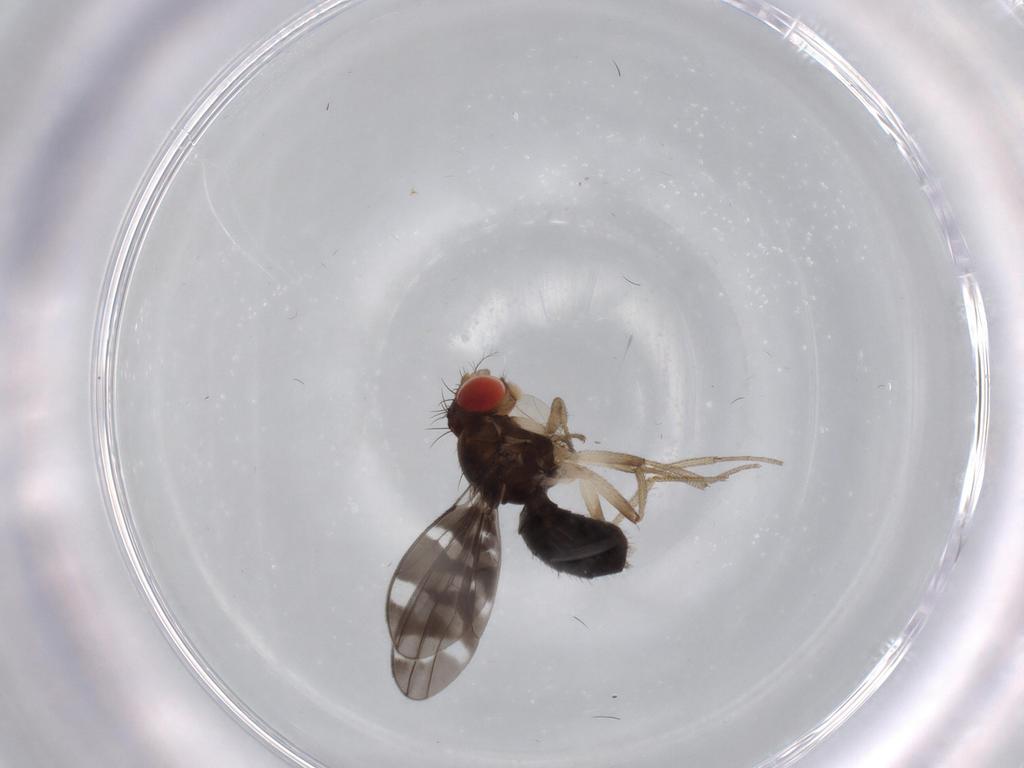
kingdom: Animalia
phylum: Arthropoda
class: Insecta
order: Diptera
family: Drosophilidae
